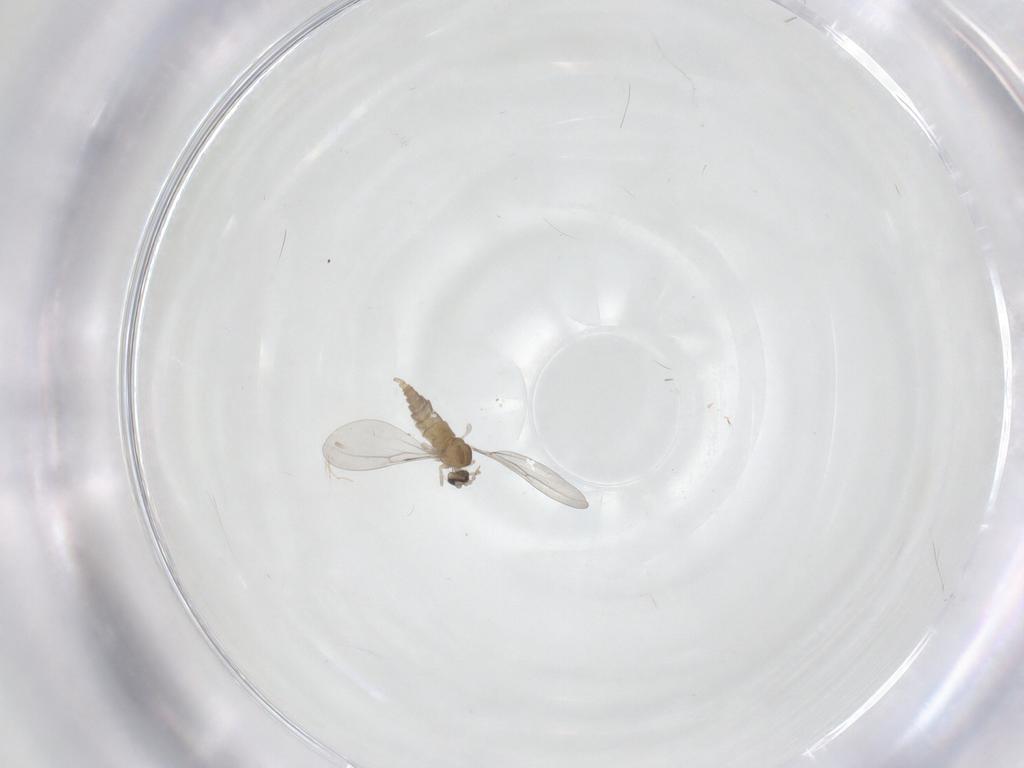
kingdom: Animalia
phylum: Arthropoda
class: Insecta
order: Diptera
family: Cecidomyiidae
